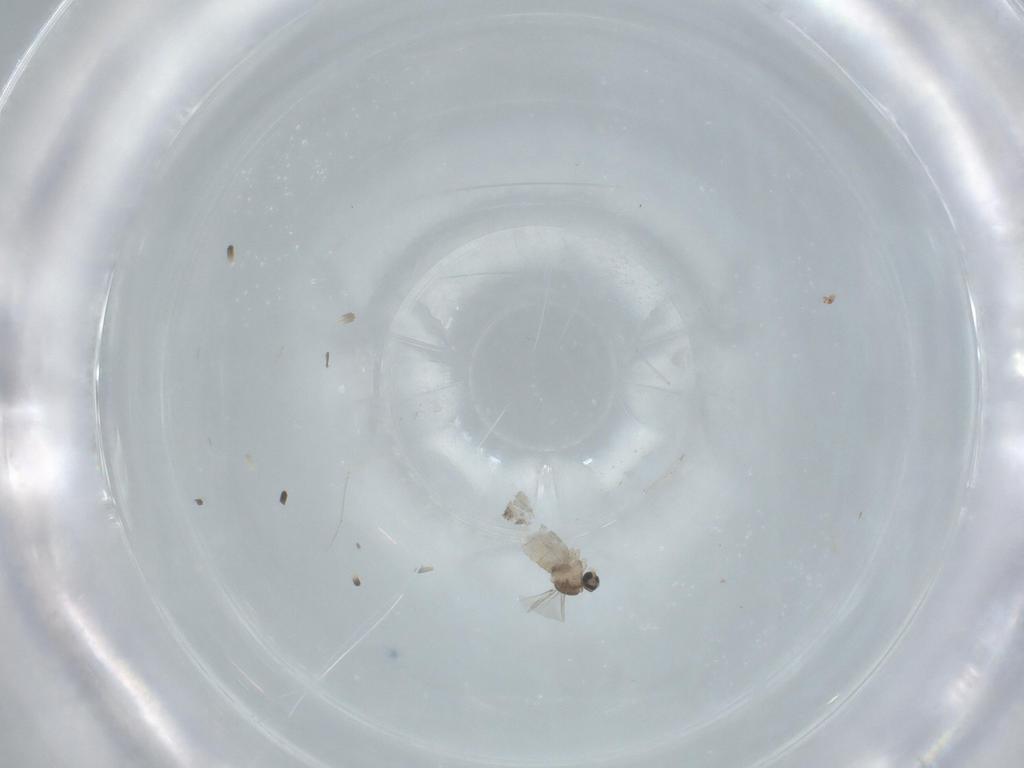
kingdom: Animalia
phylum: Arthropoda
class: Insecta
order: Diptera
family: Cecidomyiidae
